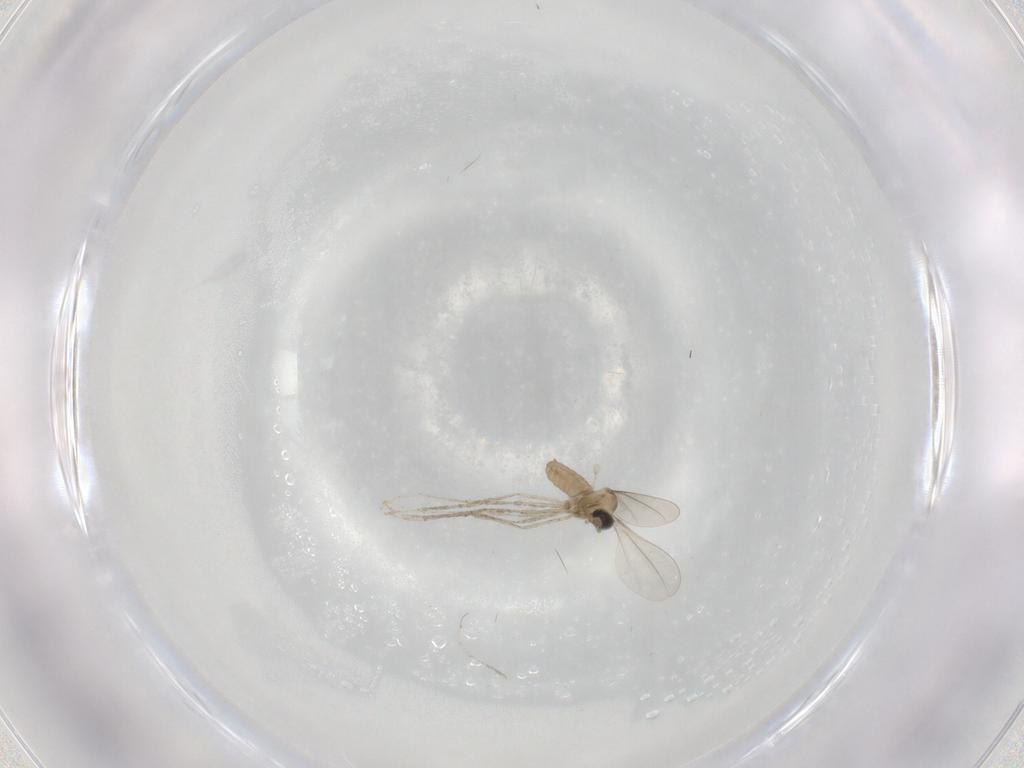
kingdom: Animalia
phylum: Arthropoda
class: Insecta
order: Diptera
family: Cecidomyiidae
